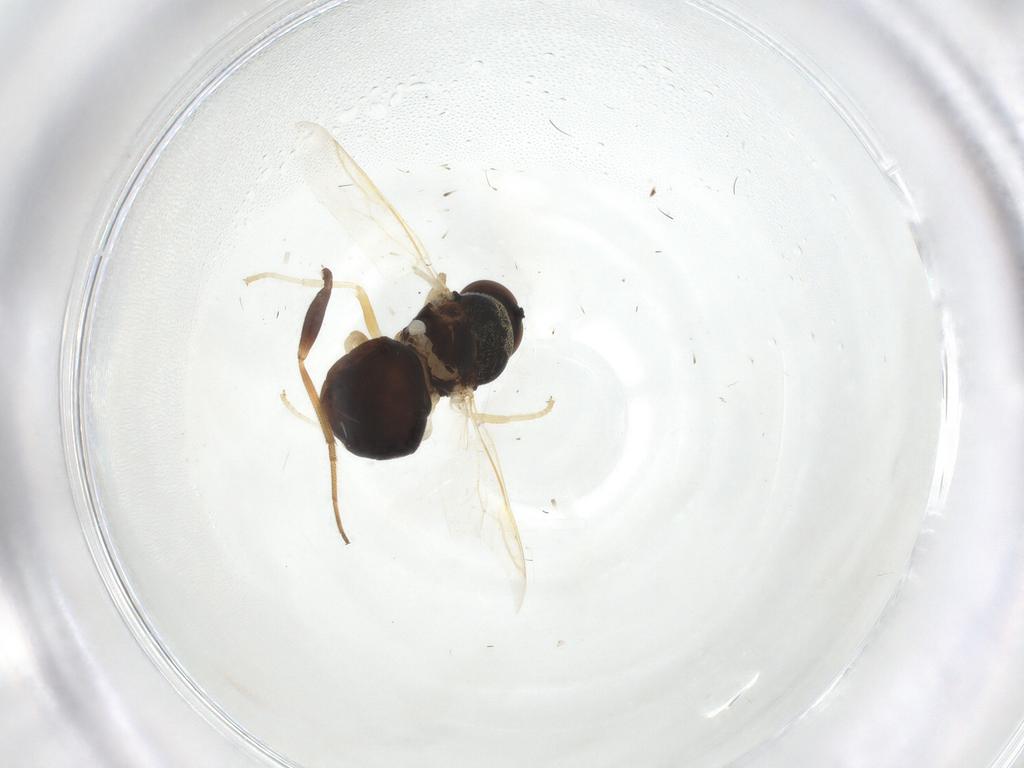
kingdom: Animalia
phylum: Arthropoda
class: Insecta
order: Diptera
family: Stratiomyidae
